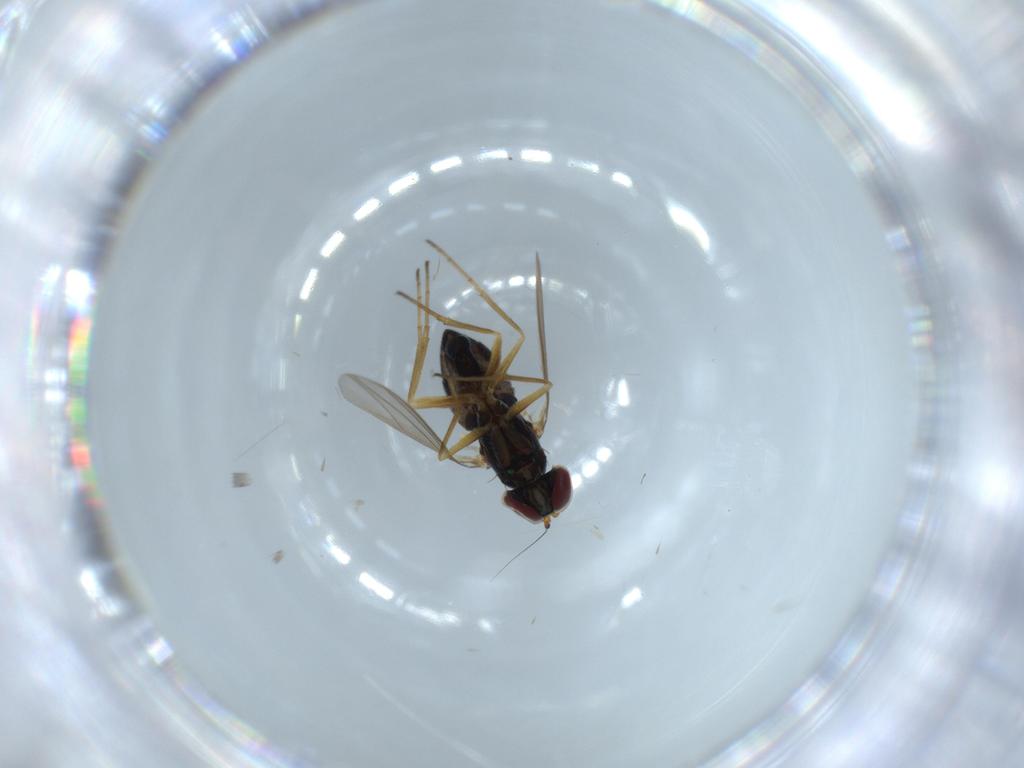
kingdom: Animalia
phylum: Arthropoda
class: Insecta
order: Diptera
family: Dolichopodidae
